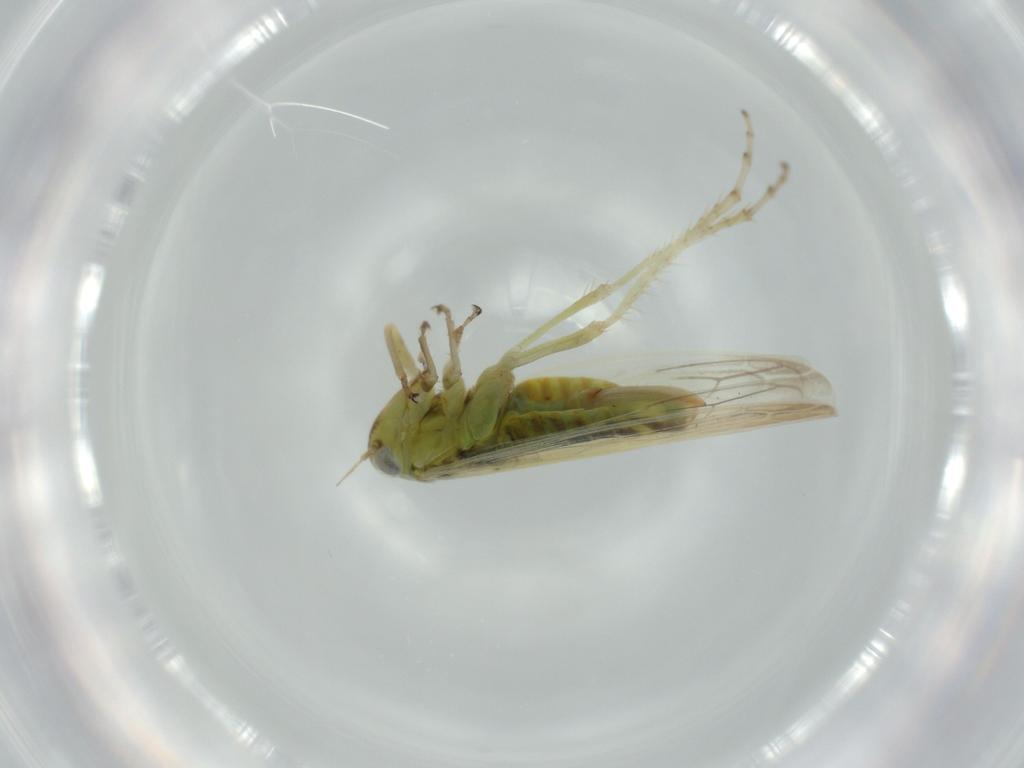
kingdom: Animalia
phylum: Arthropoda
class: Insecta
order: Hemiptera
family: Cicadellidae
